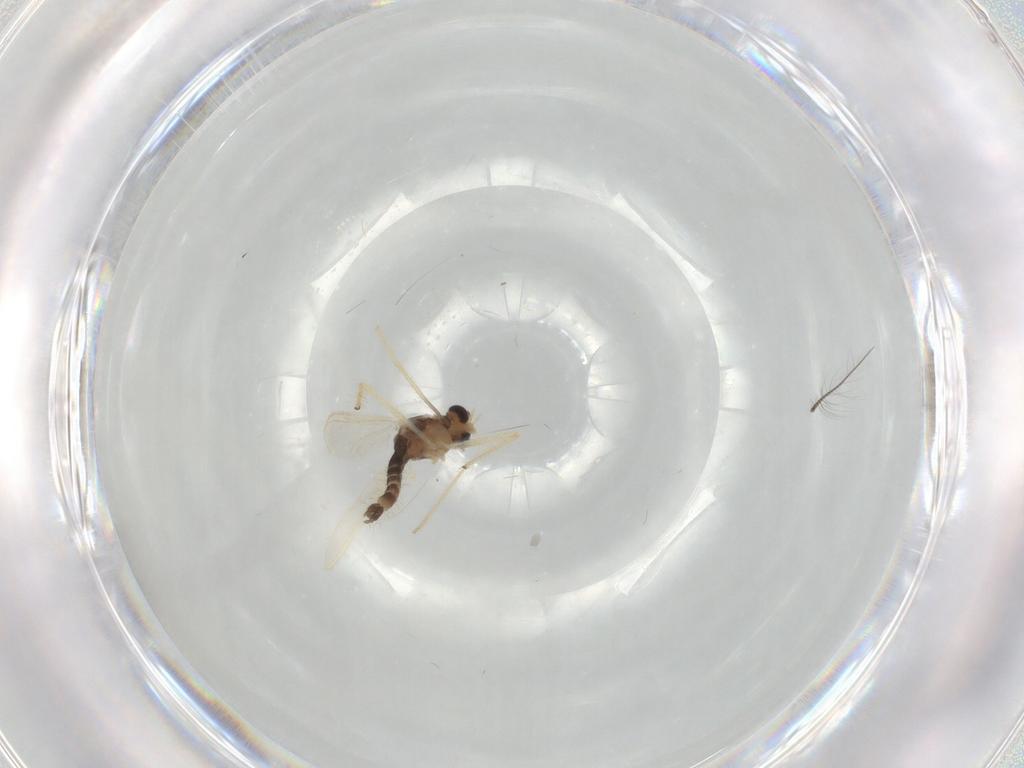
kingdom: Animalia
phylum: Arthropoda
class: Insecta
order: Diptera
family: Chironomidae
